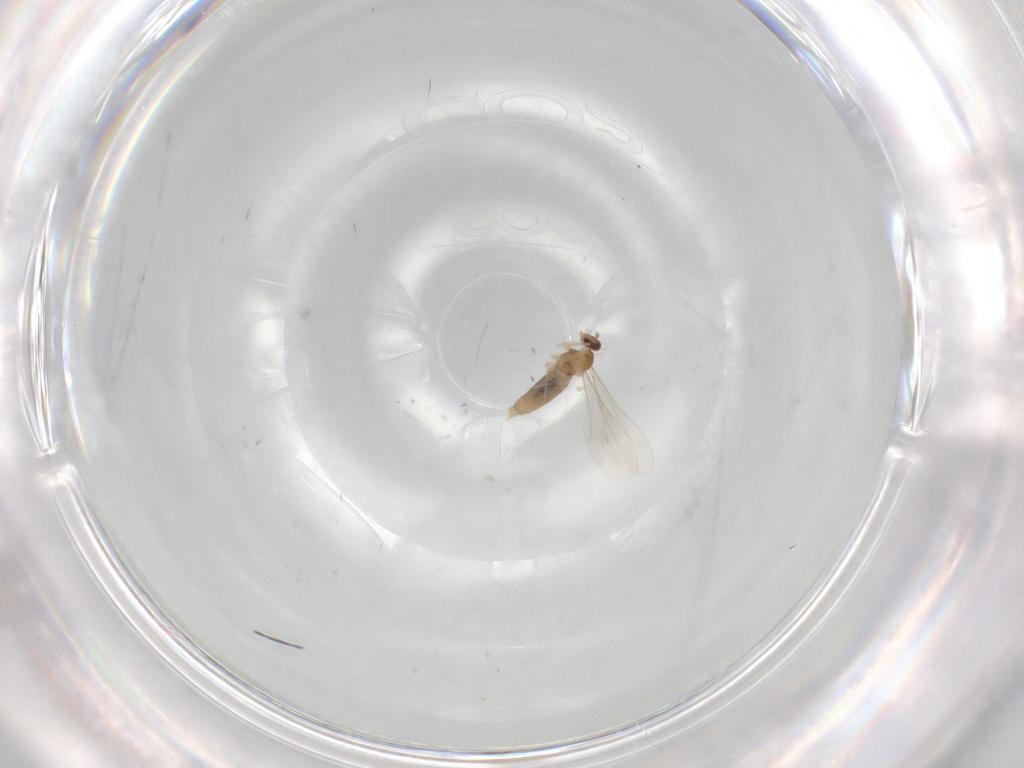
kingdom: Animalia
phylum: Arthropoda
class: Insecta
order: Diptera
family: Cecidomyiidae
